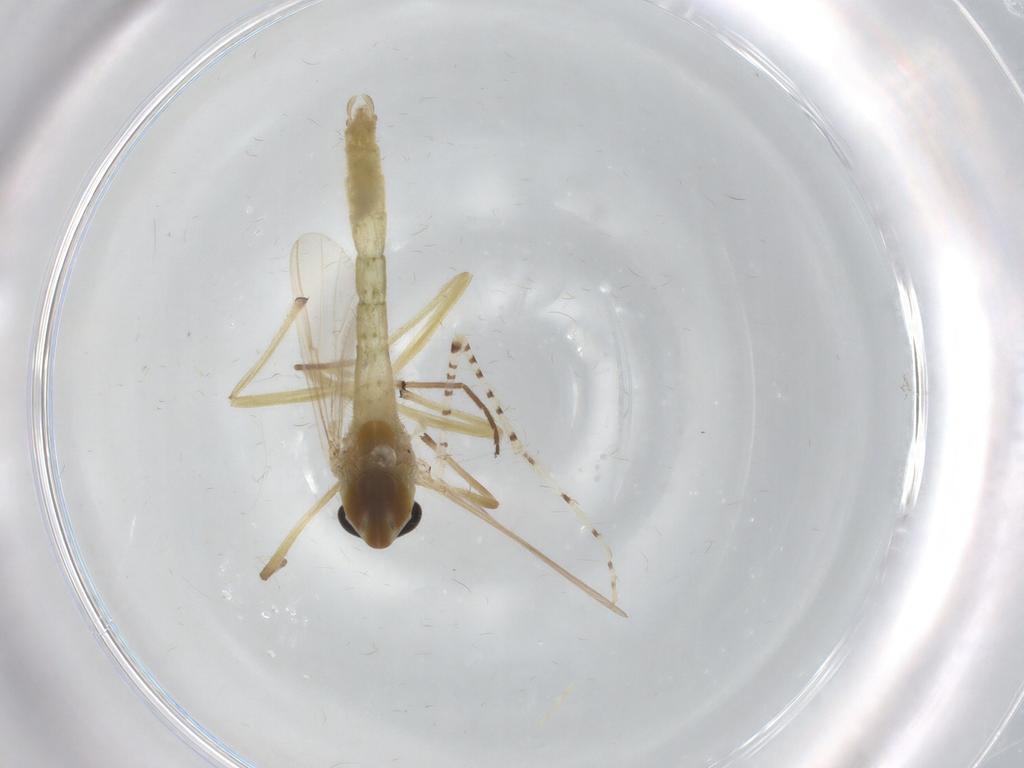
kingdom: Animalia
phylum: Arthropoda
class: Insecta
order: Diptera
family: Chironomidae
